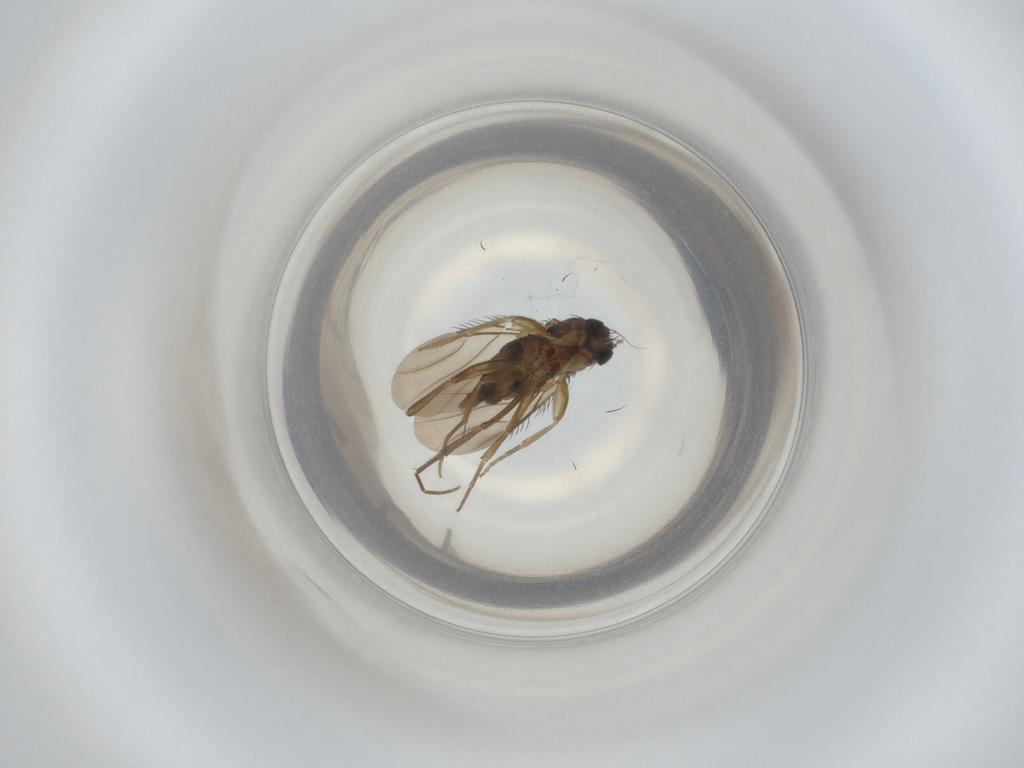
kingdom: Animalia
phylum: Arthropoda
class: Insecta
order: Diptera
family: Phoridae
